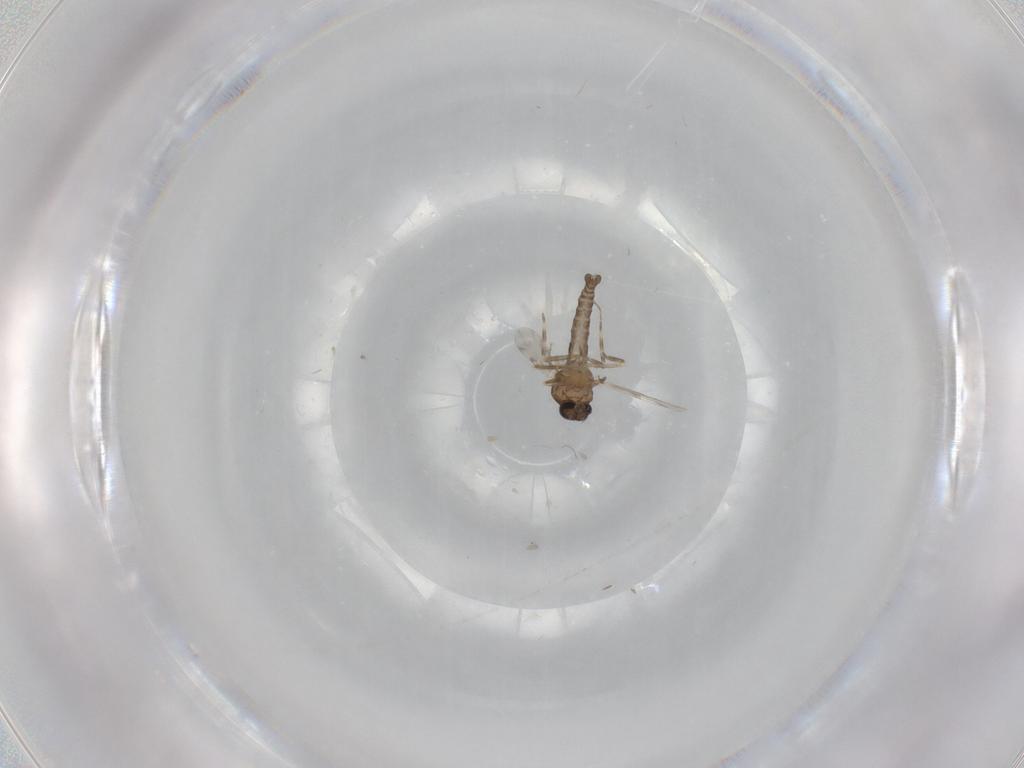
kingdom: Animalia
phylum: Arthropoda
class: Insecta
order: Diptera
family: Ceratopogonidae
